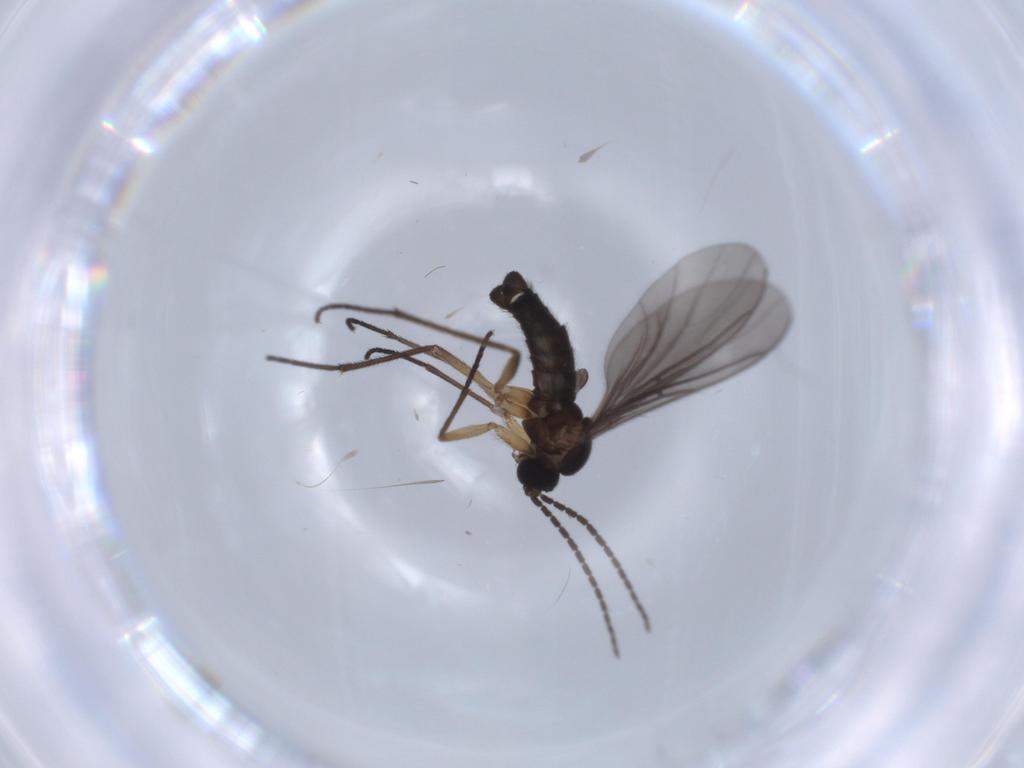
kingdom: Animalia
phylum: Arthropoda
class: Insecta
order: Diptera
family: Sciaridae
